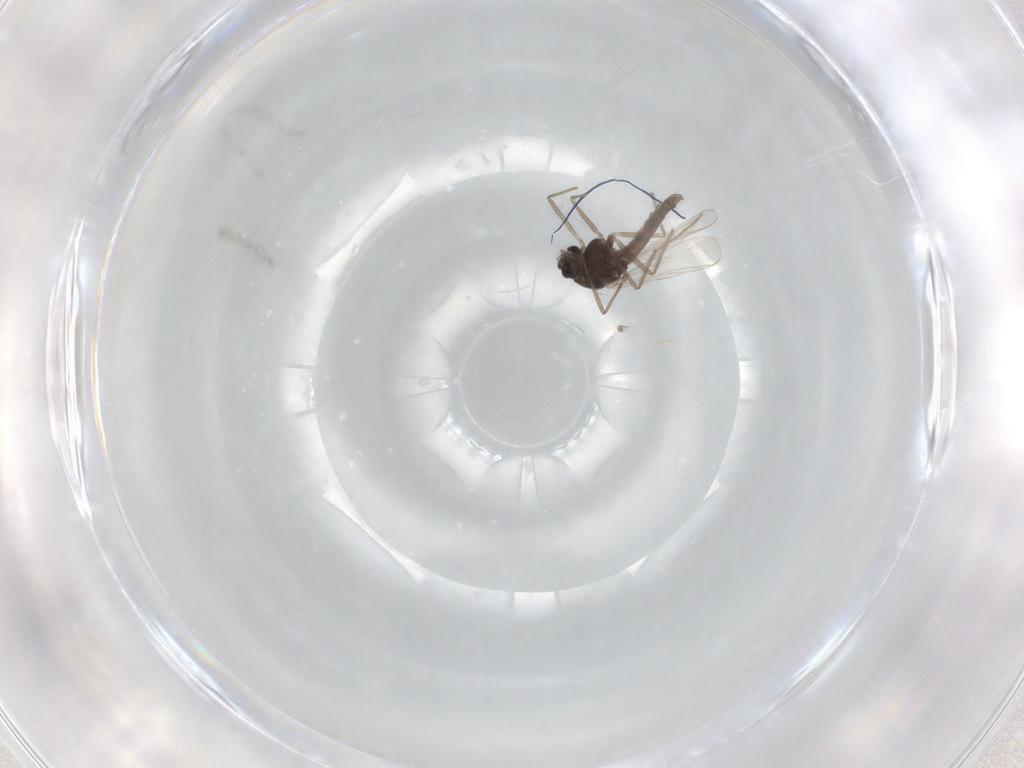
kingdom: Animalia
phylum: Arthropoda
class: Insecta
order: Diptera
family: Chironomidae
